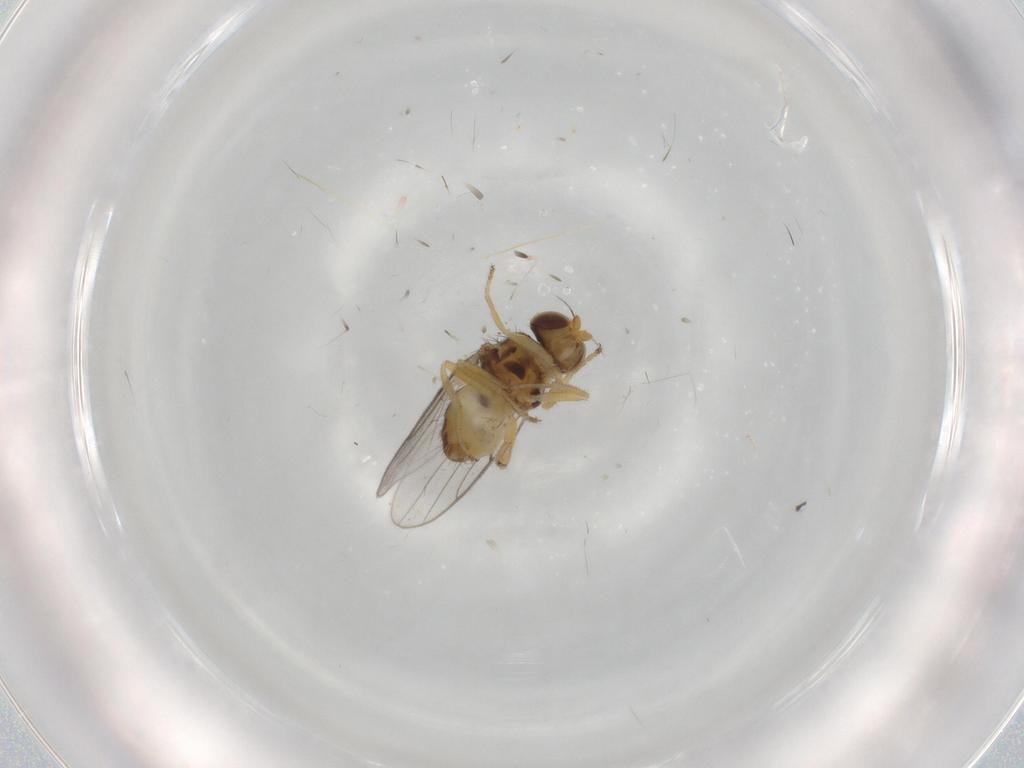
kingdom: Animalia
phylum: Arthropoda
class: Insecta
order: Diptera
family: Chloropidae
